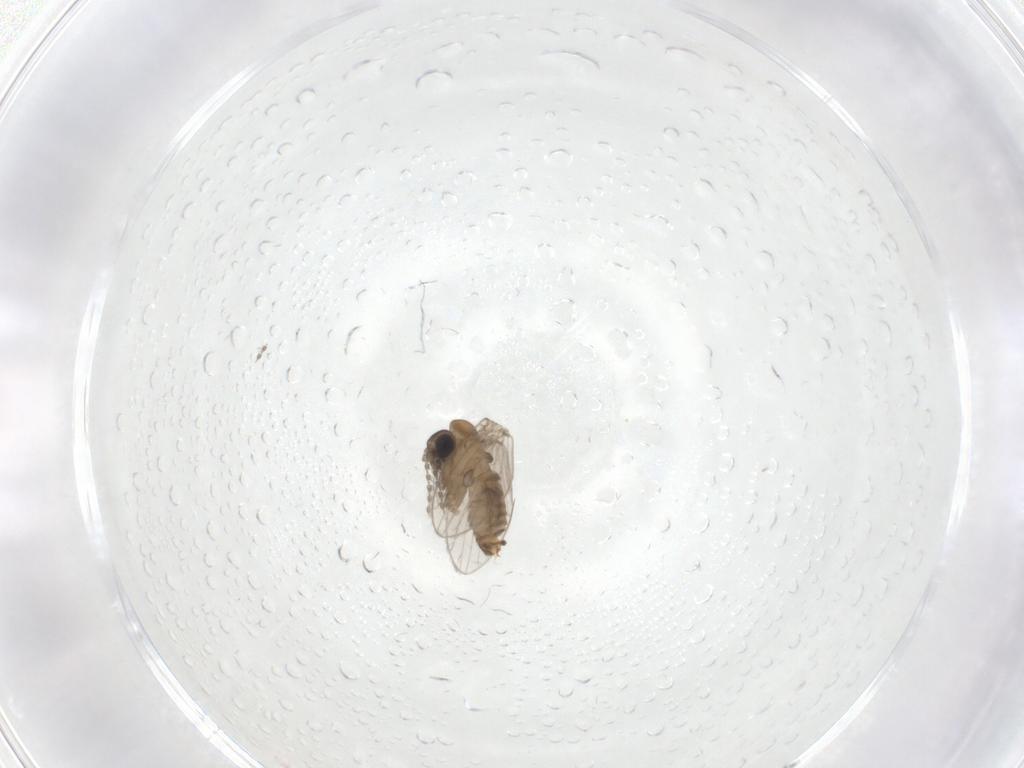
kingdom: Animalia
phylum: Arthropoda
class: Insecta
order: Diptera
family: Psychodidae
